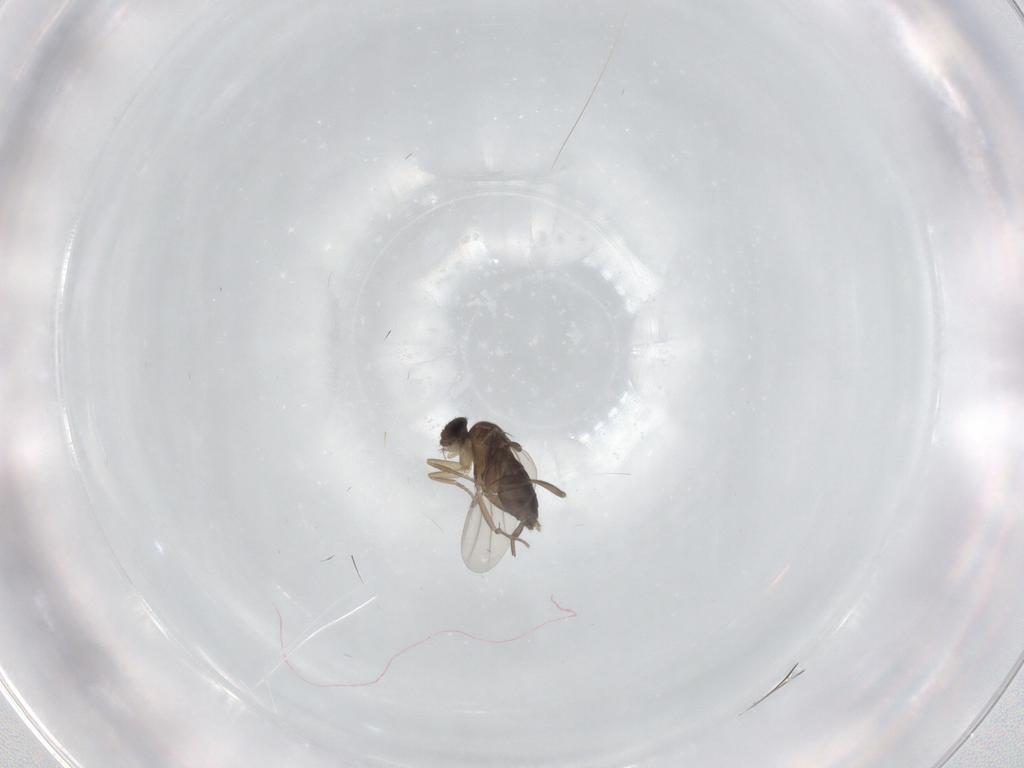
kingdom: Animalia
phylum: Arthropoda
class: Insecta
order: Diptera
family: Phoridae
